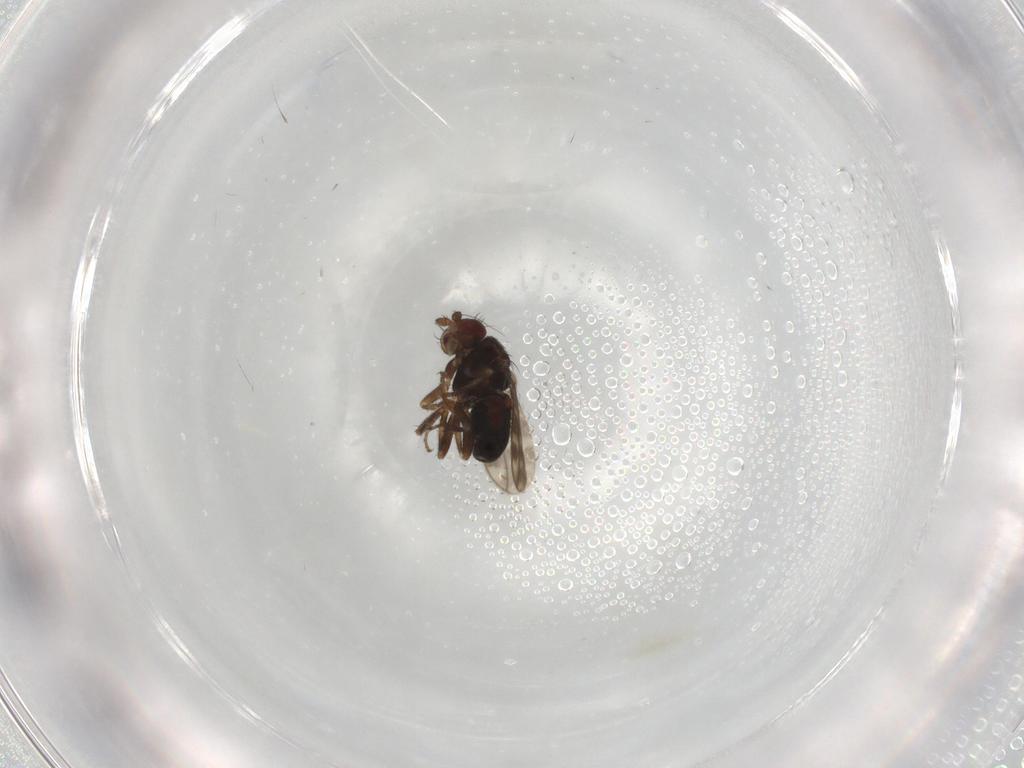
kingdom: Animalia
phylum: Arthropoda
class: Insecta
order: Diptera
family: Sphaeroceridae
